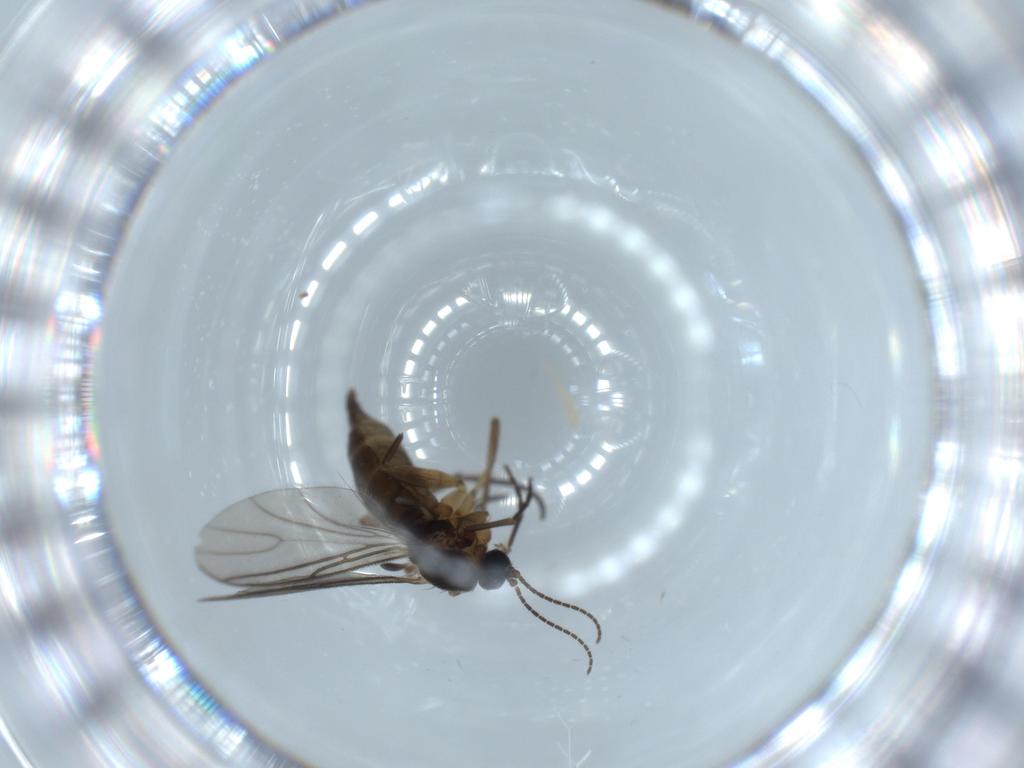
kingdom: Animalia
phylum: Arthropoda
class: Insecta
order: Diptera
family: Sciaridae
